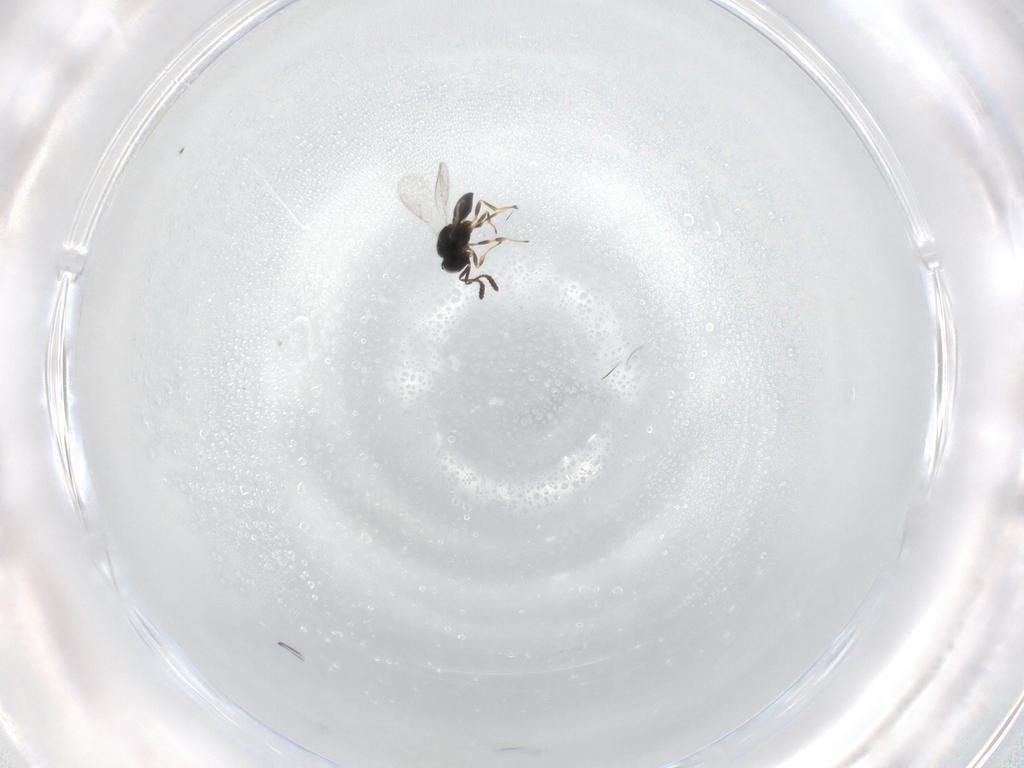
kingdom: Animalia
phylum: Arthropoda
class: Insecta
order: Hymenoptera
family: Scelionidae
